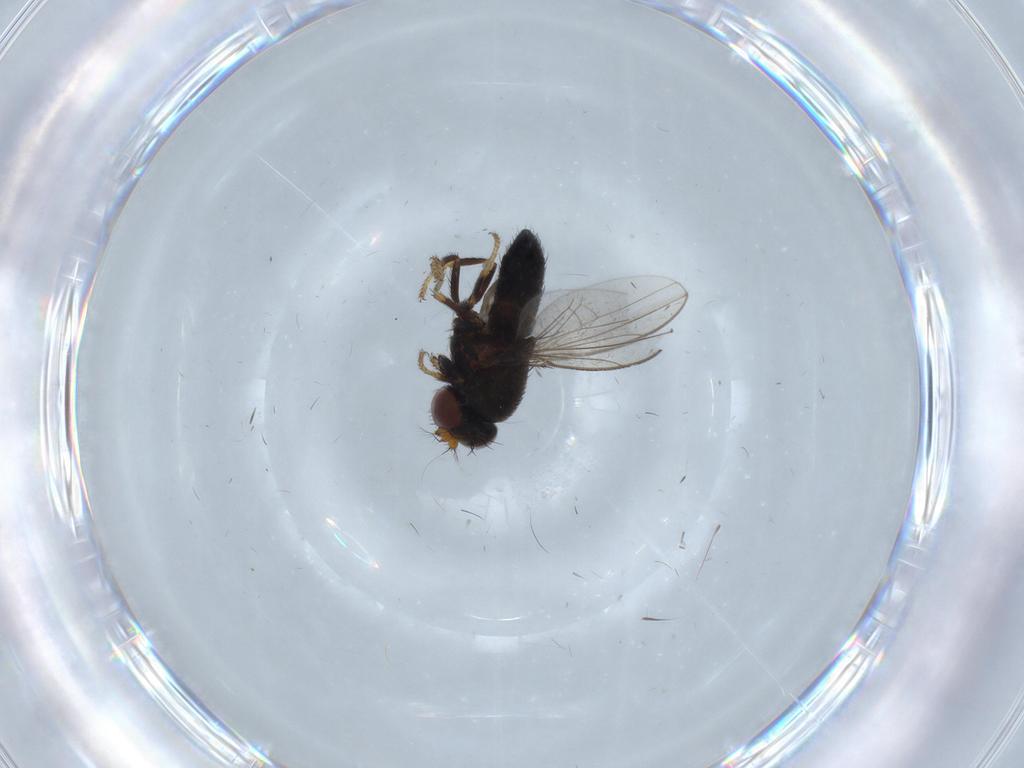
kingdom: Animalia
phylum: Arthropoda
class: Insecta
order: Diptera
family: Ephydridae
